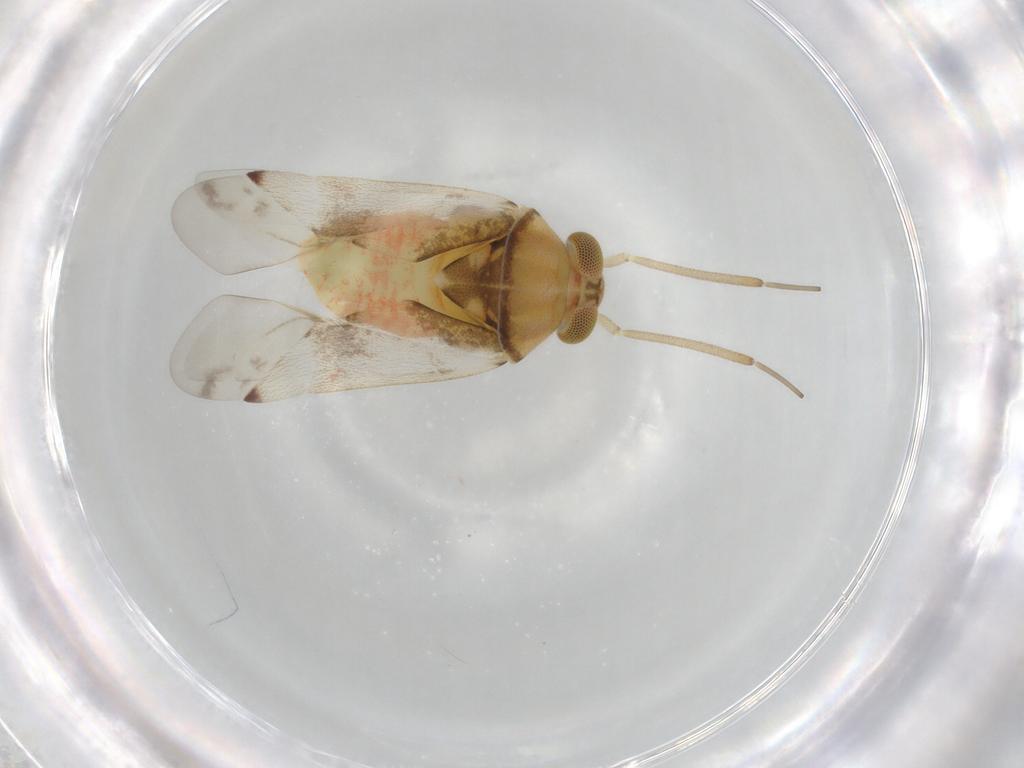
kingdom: Animalia
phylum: Arthropoda
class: Insecta
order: Hemiptera
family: Miridae
